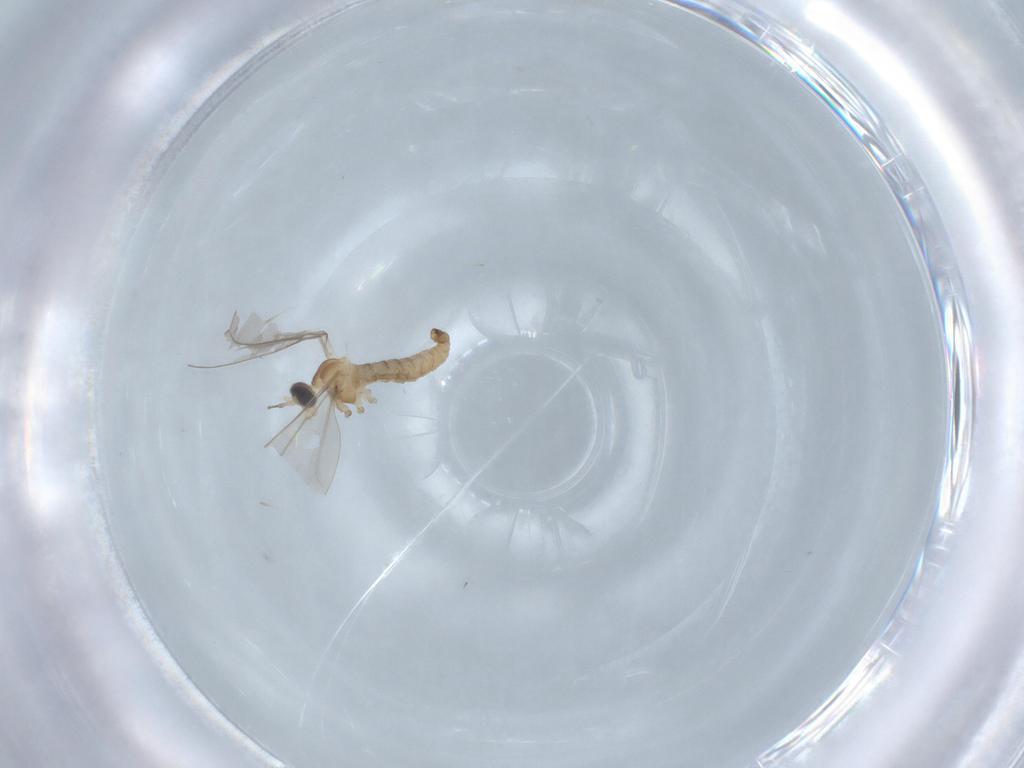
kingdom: Animalia
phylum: Arthropoda
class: Insecta
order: Diptera
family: Cecidomyiidae
